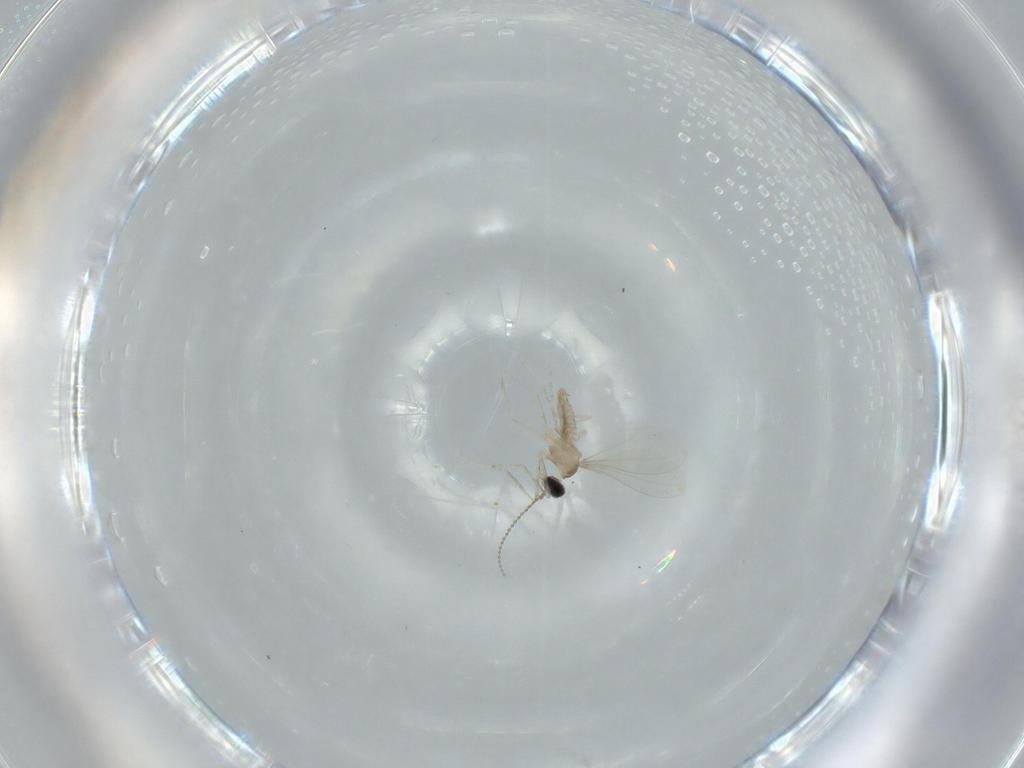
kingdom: Animalia
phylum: Arthropoda
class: Insecta
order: Diptera
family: Cecidomyiidae
